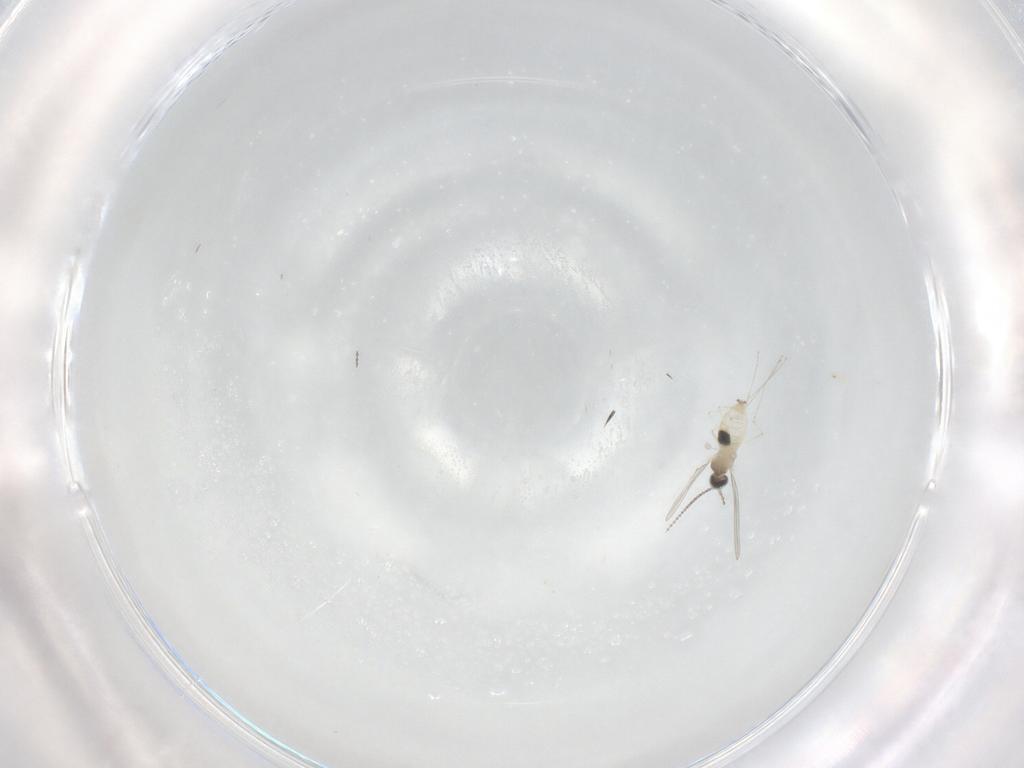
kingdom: Animalia
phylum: Arthropoda
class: Insecta
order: Diptera
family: Cecidomyiidae
